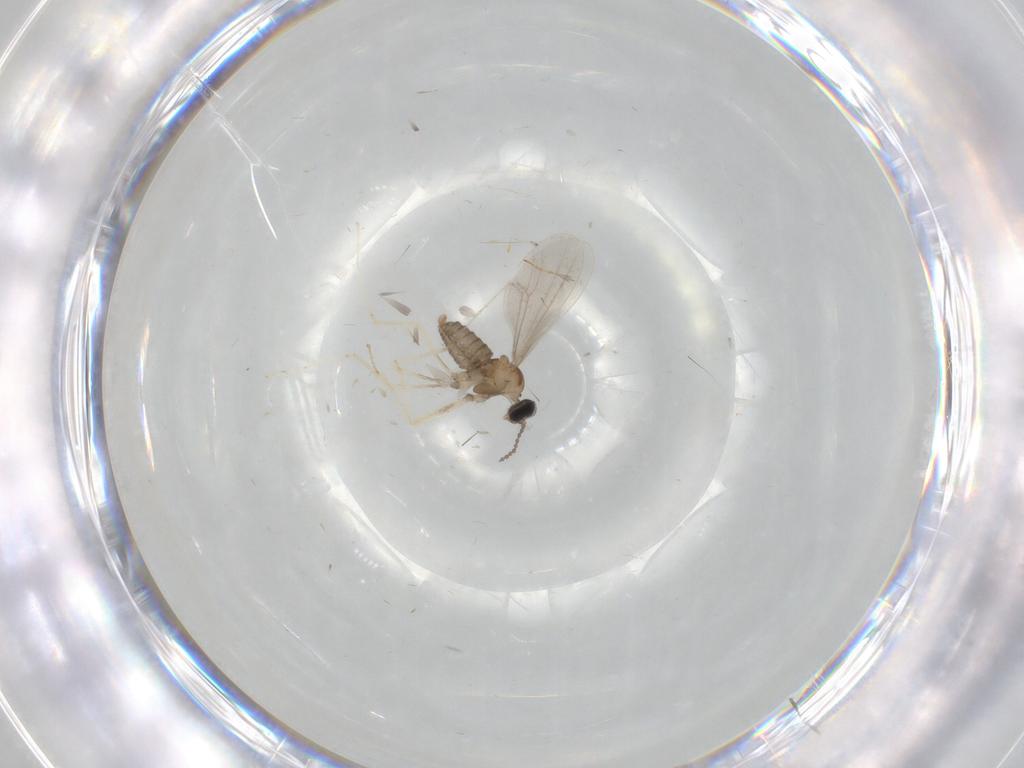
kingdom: Animalia
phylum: Arthropoda
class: Insecta
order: Diptera
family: Cecidomyiidae
